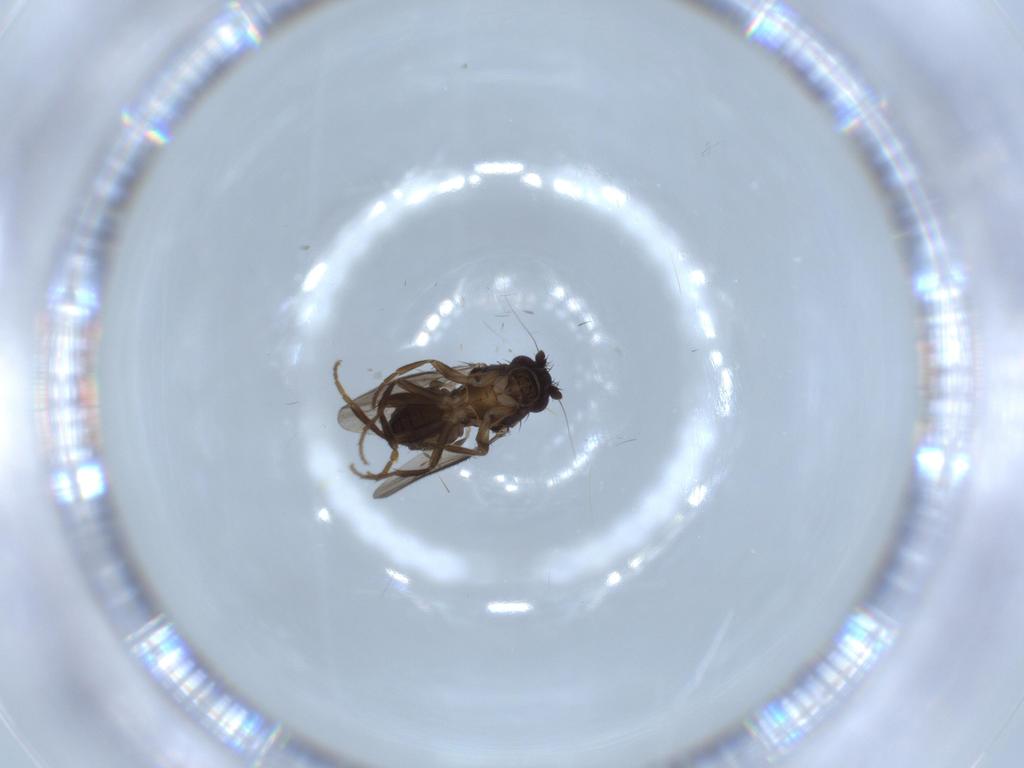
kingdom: Animalia
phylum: Arthropoda
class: Insecta
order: Diptera
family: Sphaeroceridae
